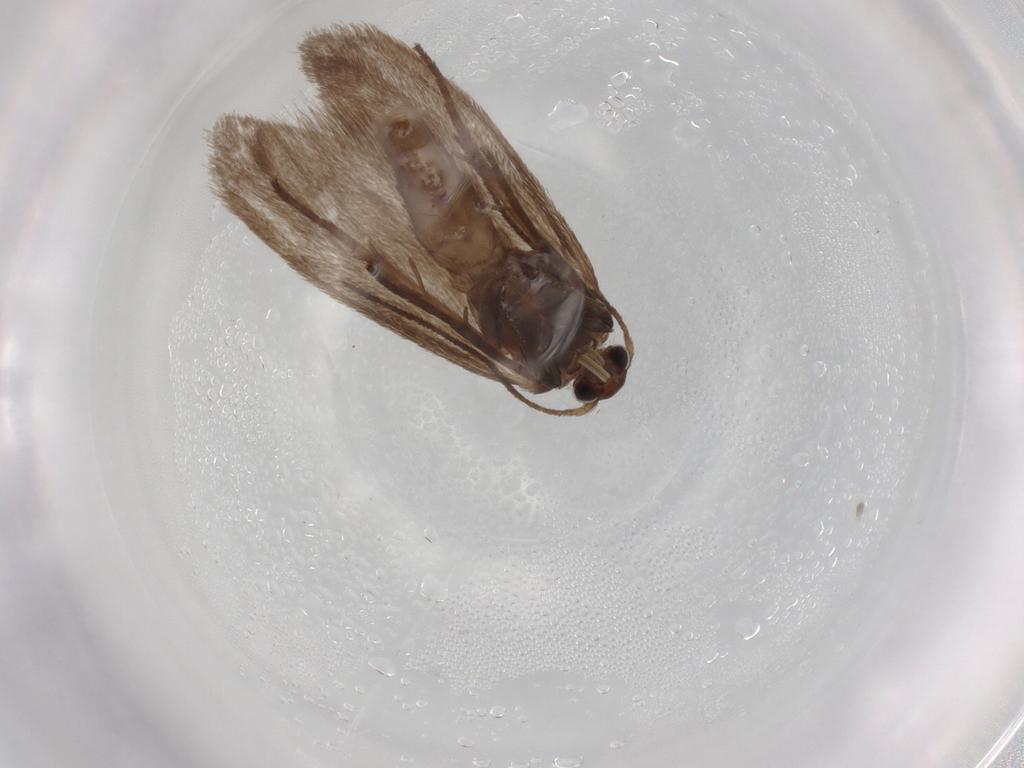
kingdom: Animalia
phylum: Arthropoda
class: Insecta
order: Lepidoptera
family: Limacodidae
